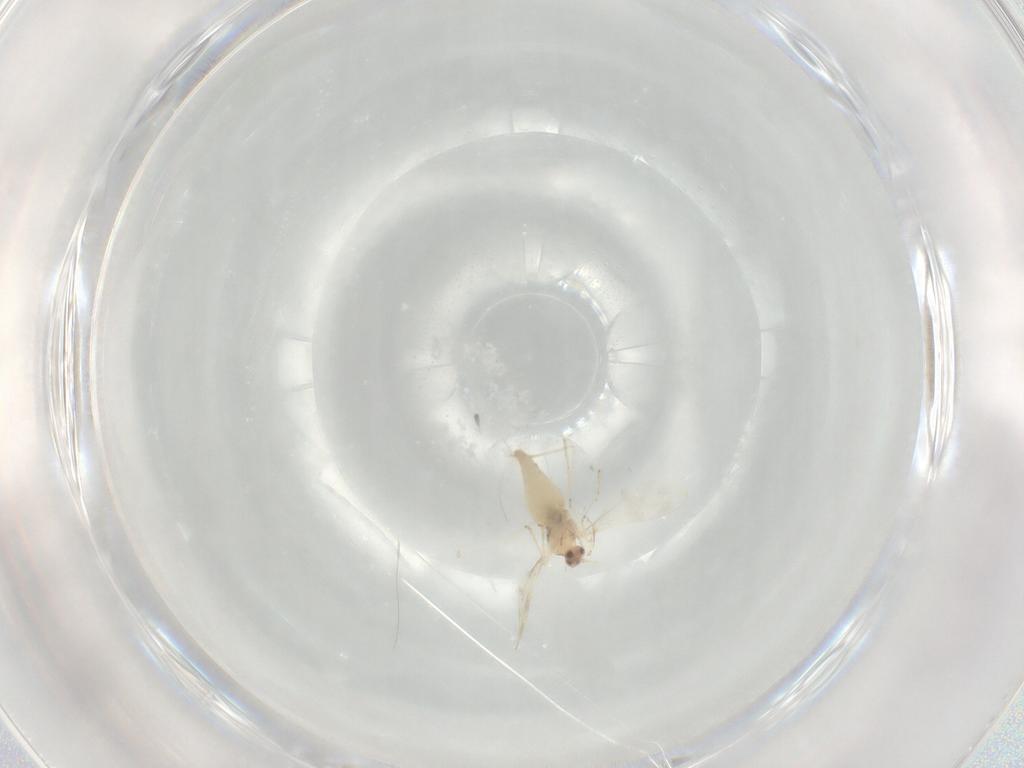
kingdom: Animalia
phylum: Arthropoda
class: Insecta
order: Diptera
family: Cecidomyiidae
